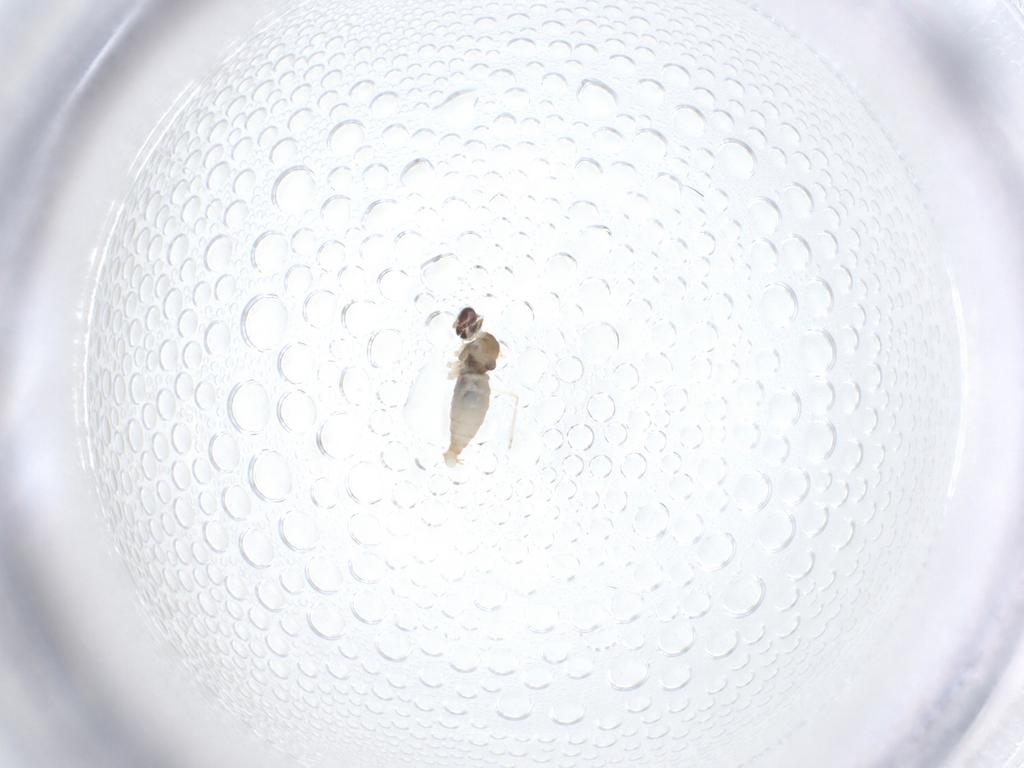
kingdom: Animalia
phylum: Arthropoda
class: Insecta
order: Diptera
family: Cecidomyiidae
